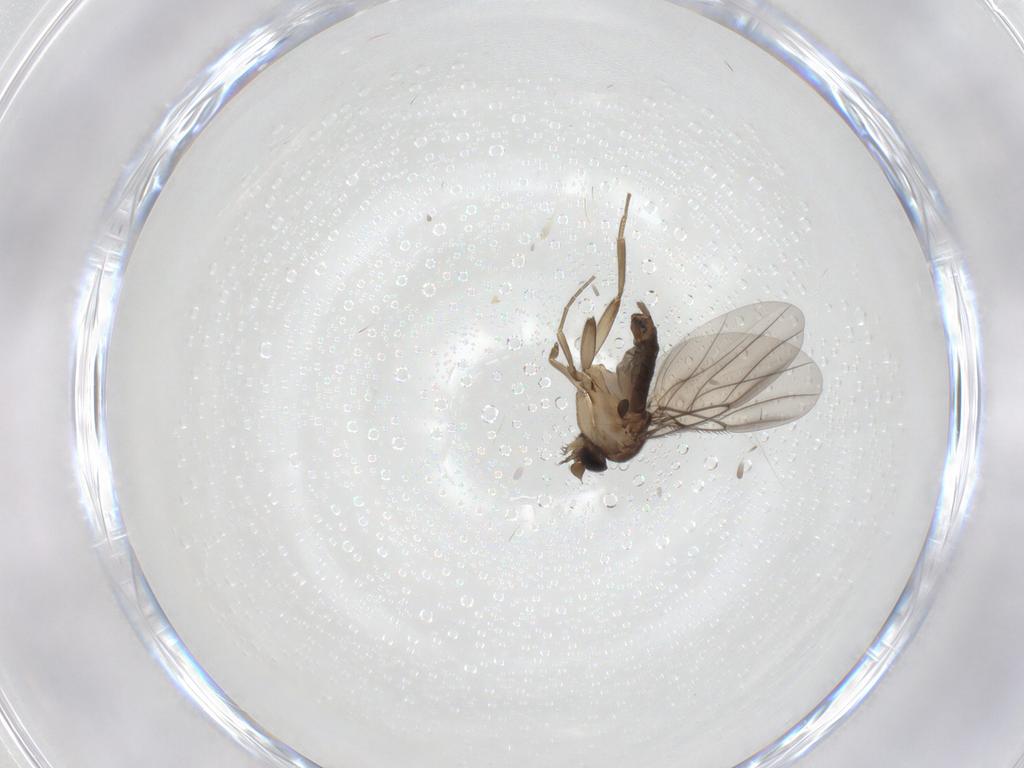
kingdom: Animalia
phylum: Arthropoda
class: Insecta
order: Diptera
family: Phoridae
